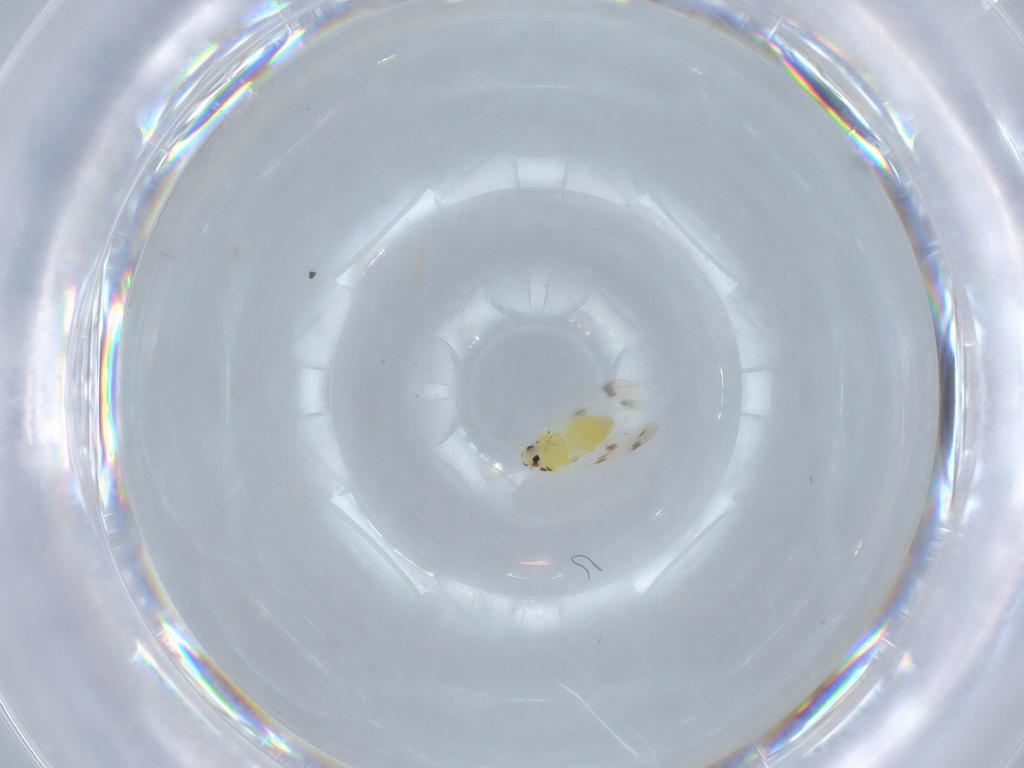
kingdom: Animalia
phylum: Arthropoda
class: Insecta
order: Hemiptera
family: Aleyrodidae
